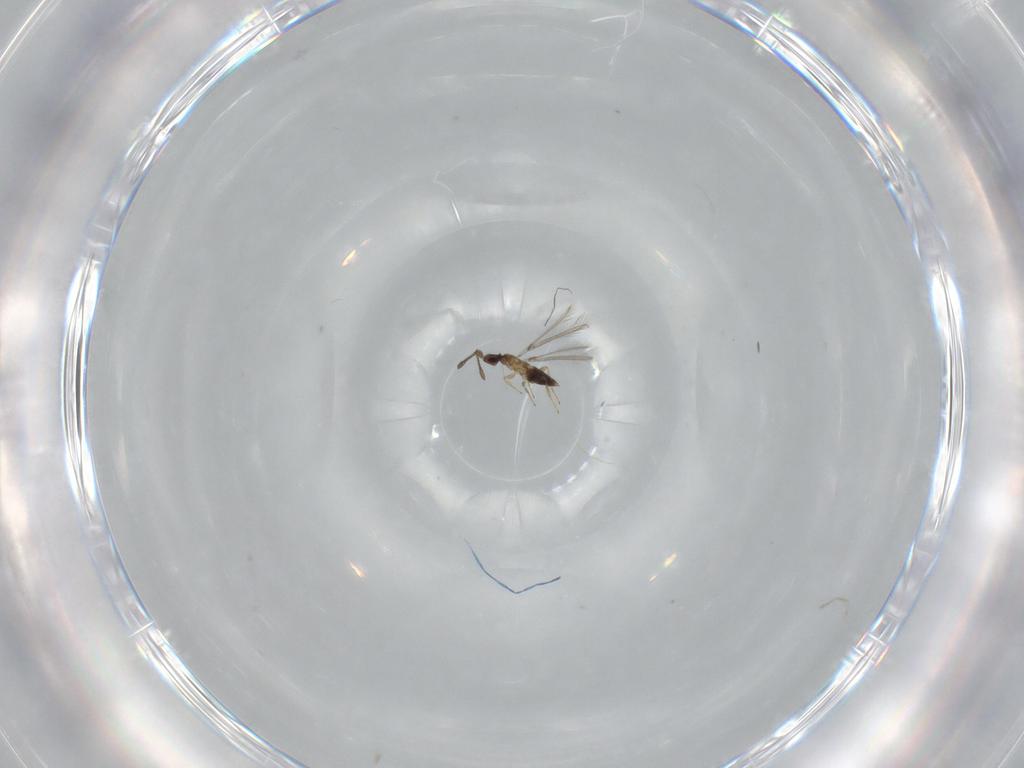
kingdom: Animalia
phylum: Arthropoda
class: Insecta
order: Hymenoptera
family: Mymaridae
